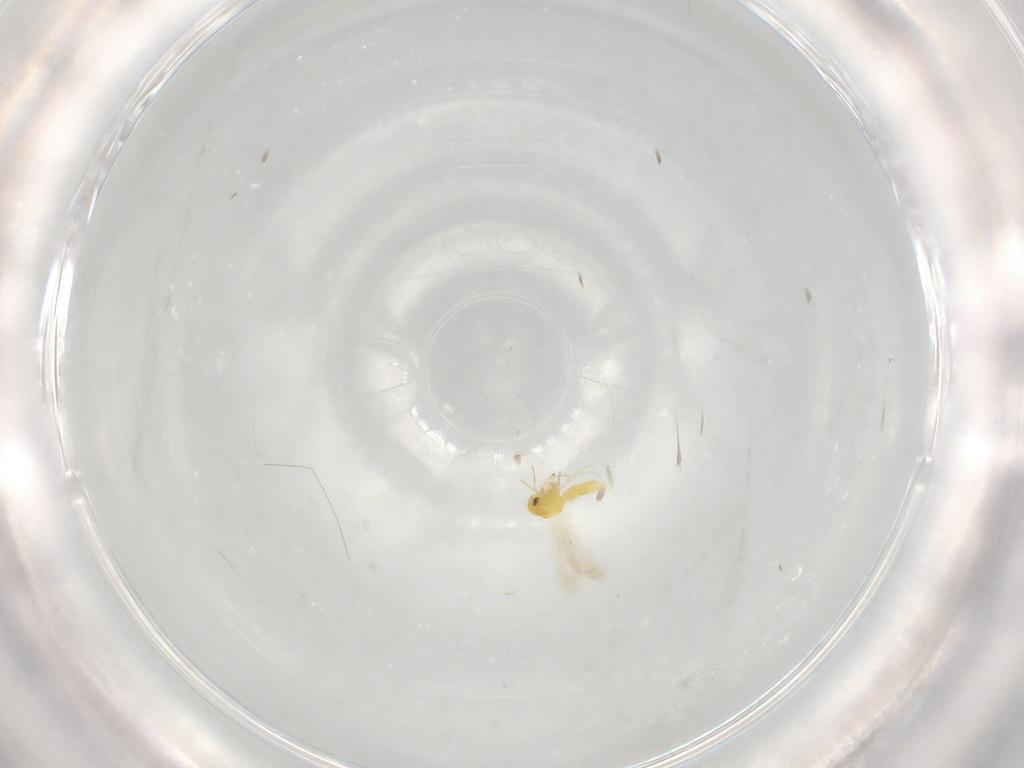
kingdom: Animalia
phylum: Arthropoda
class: Insecta
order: Hemiptera
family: Aleyrodidae
